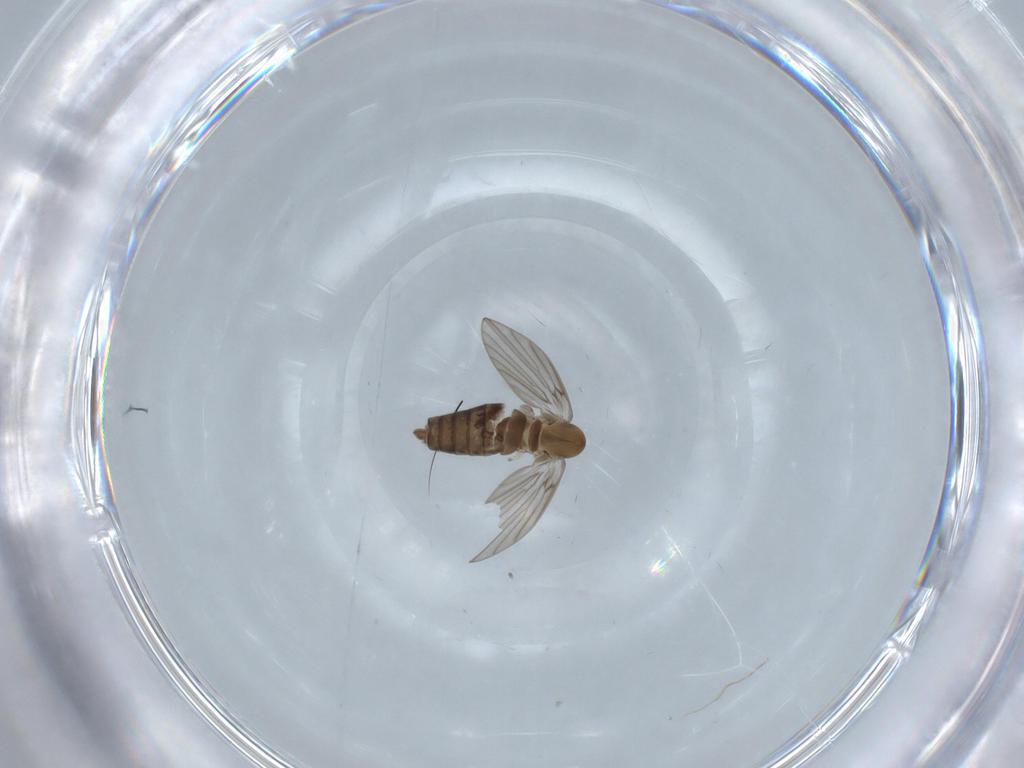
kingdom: Animalia
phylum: Arthropoda
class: Insecta
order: Diptera
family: Psychodidae
